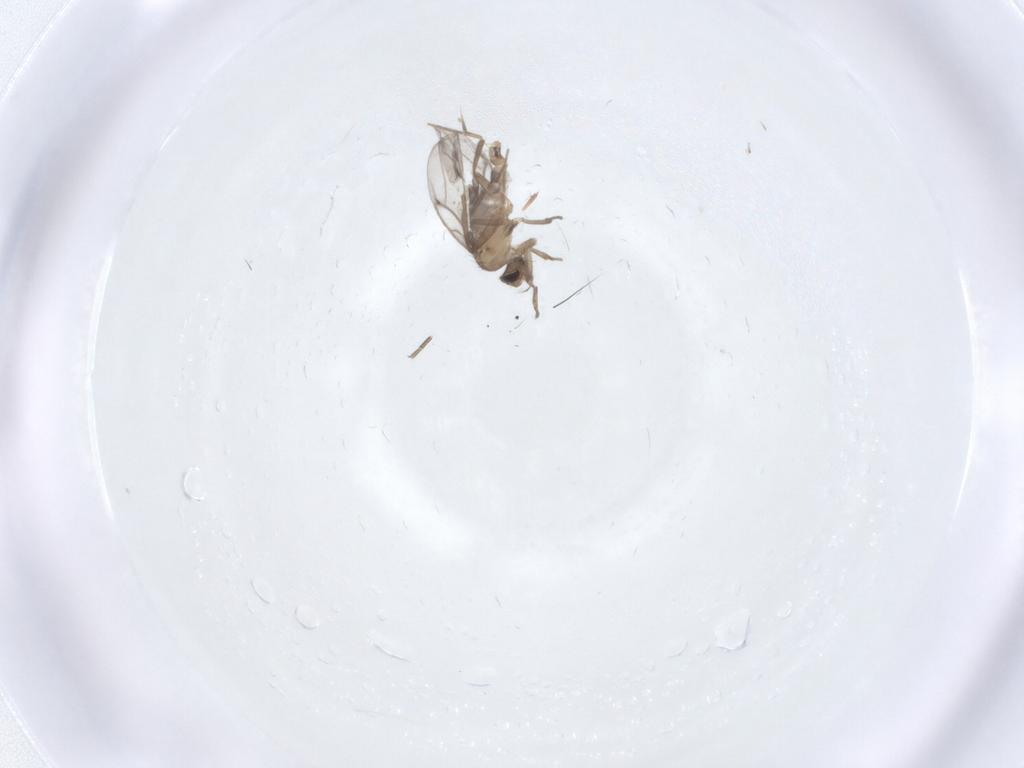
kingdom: Animalia
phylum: Arthropoda
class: Insecta
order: Diptera
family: Cecidomyiidae
